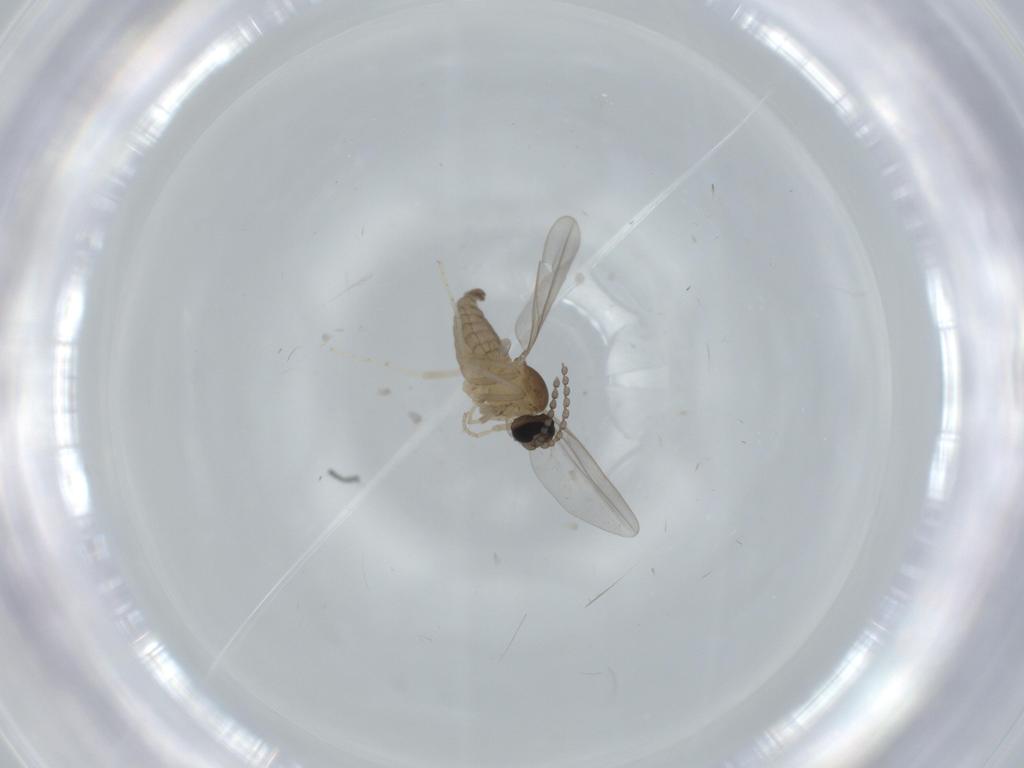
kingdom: Animalia
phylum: Arthropoda
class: Insecta
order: Diptera
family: Cecidomyiidae
